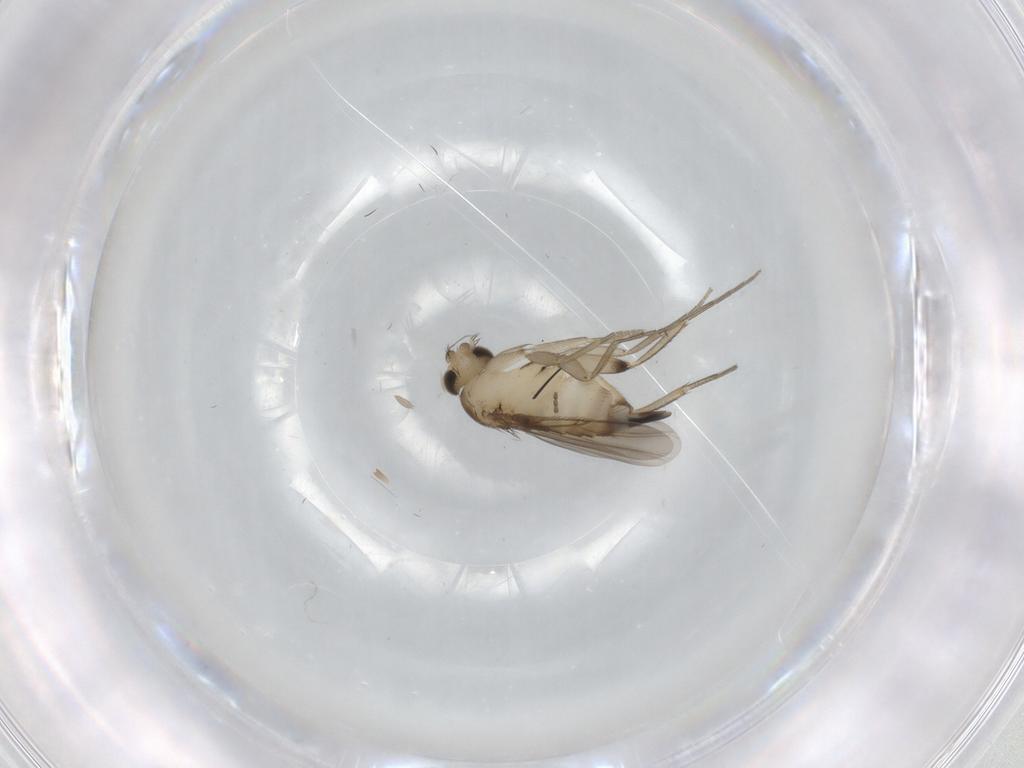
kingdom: Animalia
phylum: Arthropoda
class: Insecta
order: Diptera
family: Phoridae
